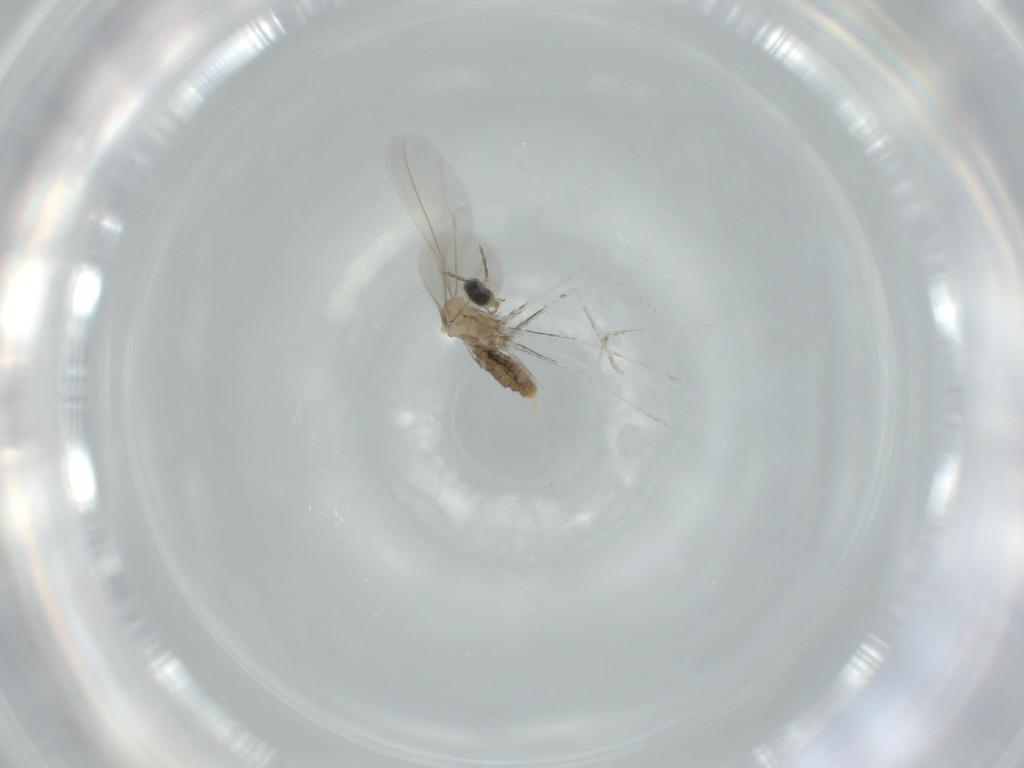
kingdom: Animalia
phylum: Arthropoda
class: Insecta
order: Diptera
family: Cecidomyiidae
